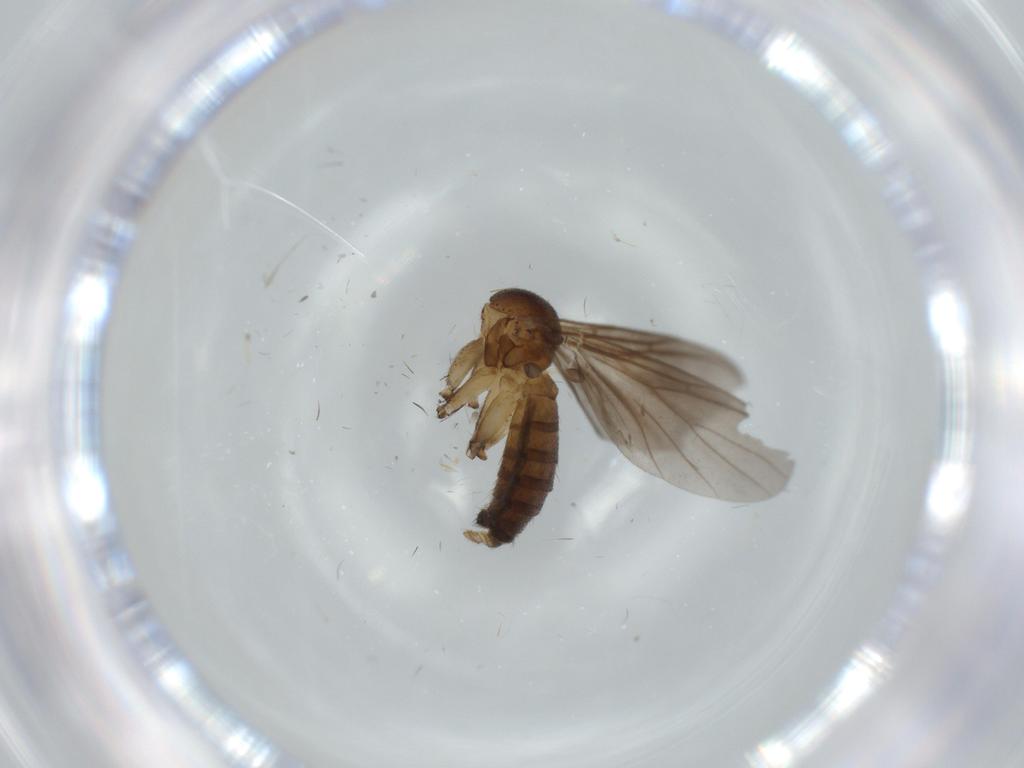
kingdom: Animalia
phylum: Arthropoda
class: Insecta
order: Diptera
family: Mycetophilidae
